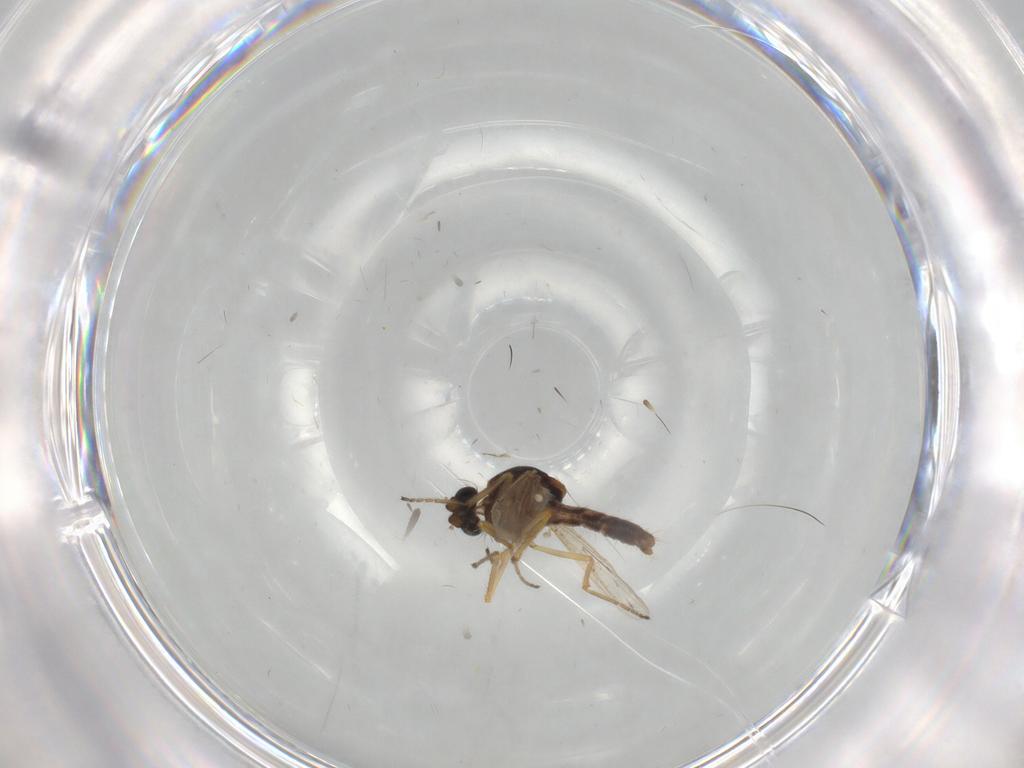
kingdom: Animalia
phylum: Arthropoda
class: Insecta
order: Diptera
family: Ceratopogonidae
